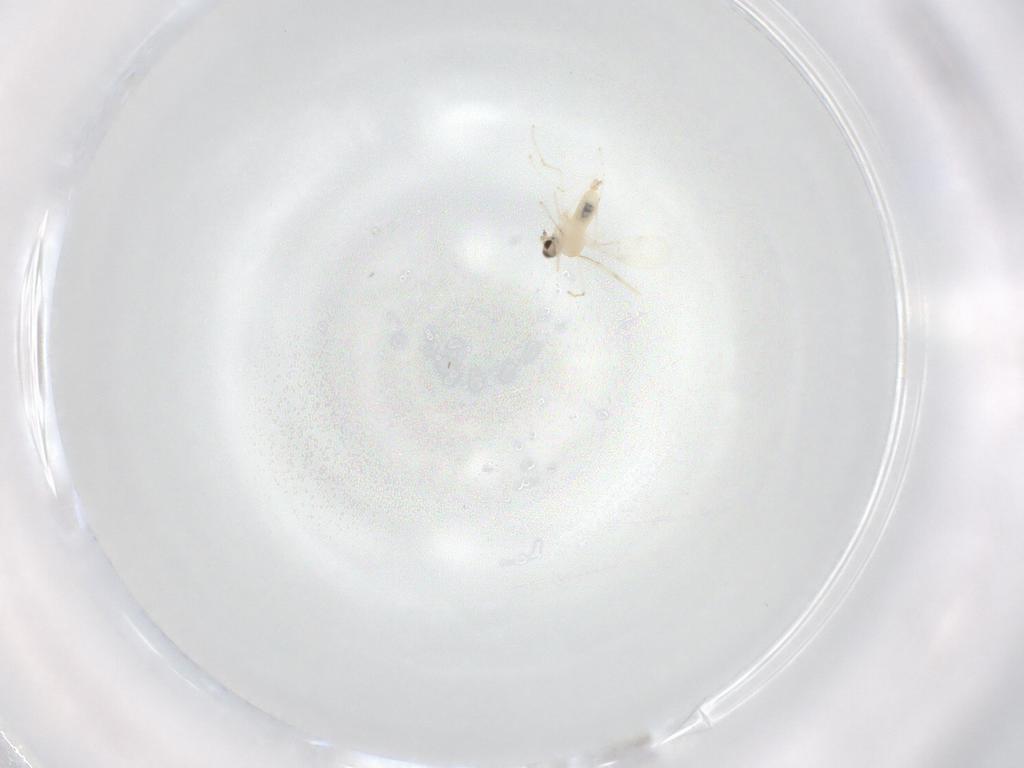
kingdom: Animalia
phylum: Arthropoda
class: Insecta
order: Diptera
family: Cecidomyiidae
